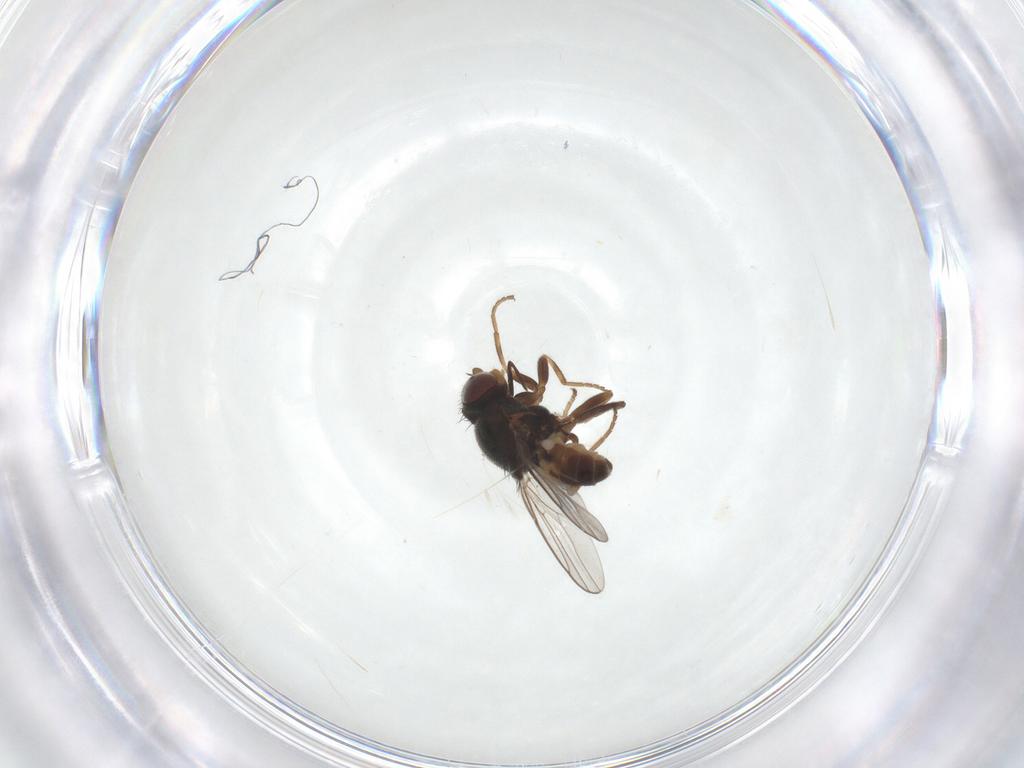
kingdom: Animalia
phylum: Arthropoda
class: Insecta
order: Diptera
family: Chloropidae
